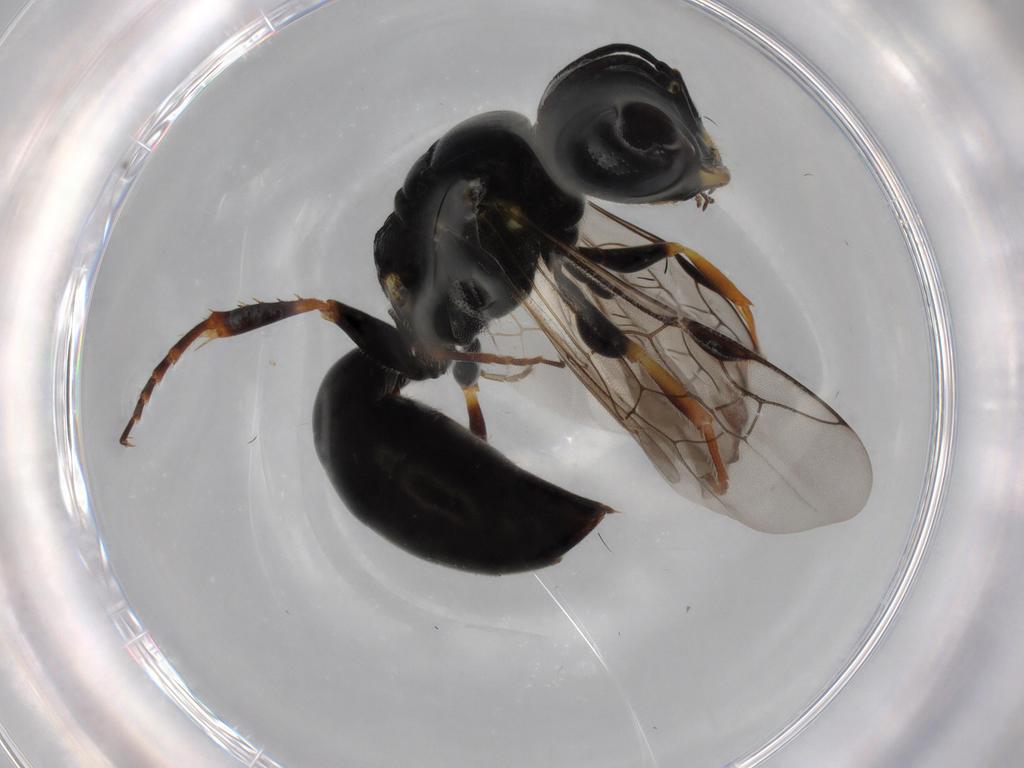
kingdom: Animalia
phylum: Arthropoda
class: Insecta
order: Hymenoptera
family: Crabronidae
